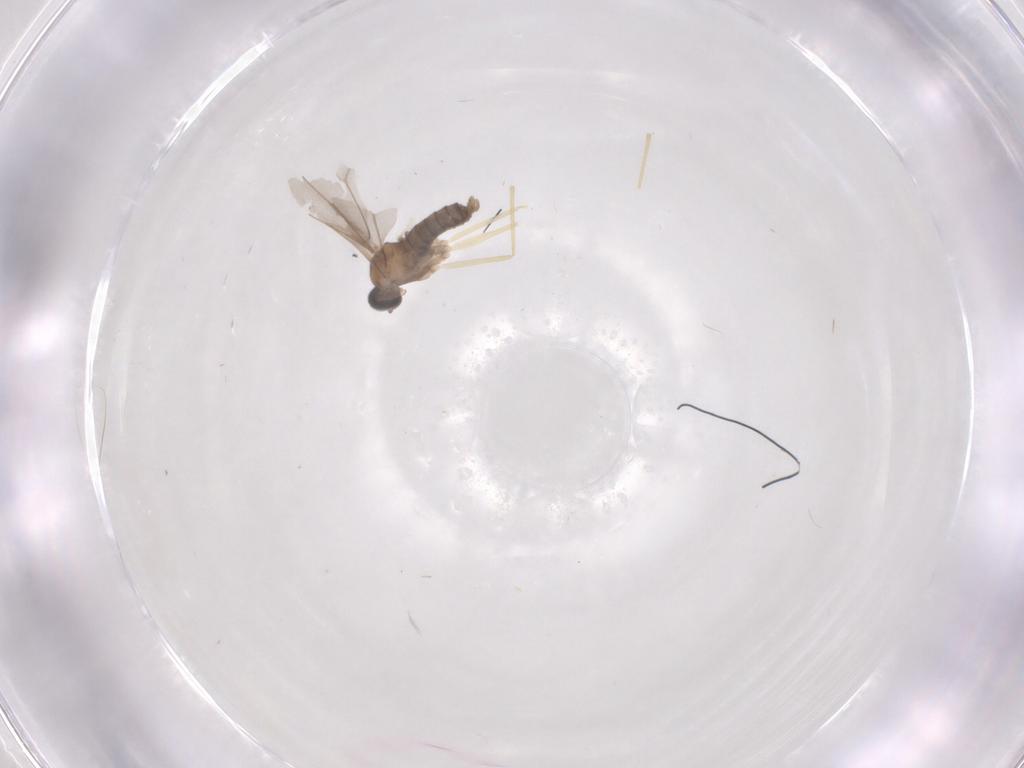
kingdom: Animalia
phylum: Arthropoda
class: Insecta
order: Diptera
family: Cecidomyiidae
